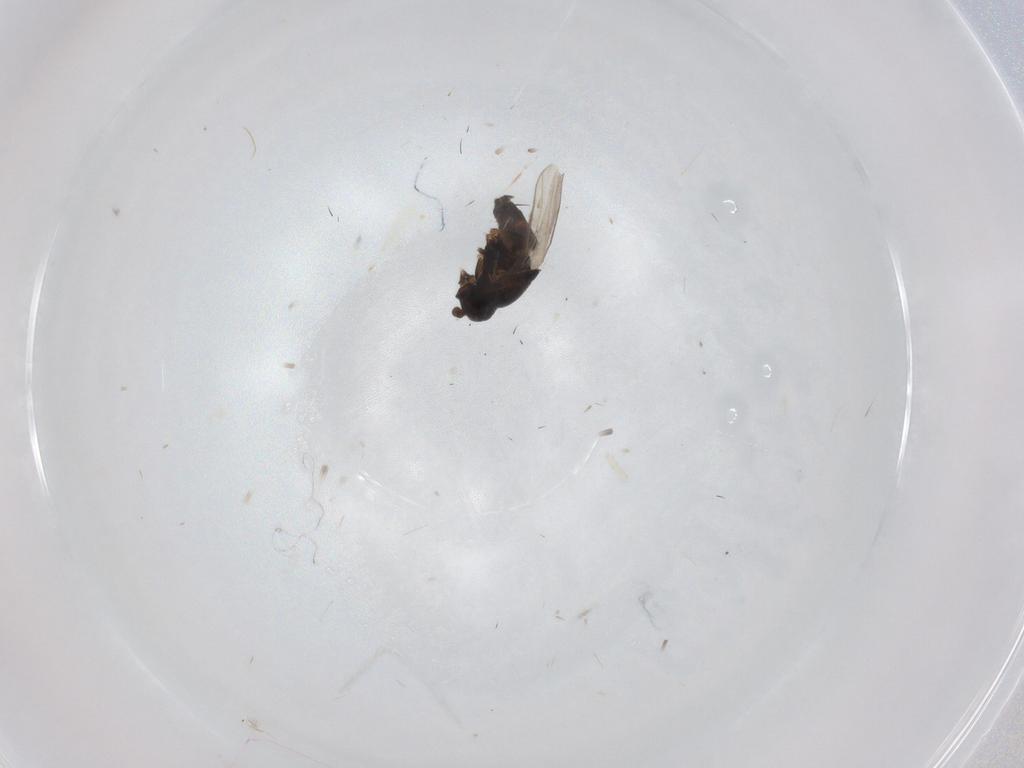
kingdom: Animalia
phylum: Arthropoda
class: Insecta
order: Diptera
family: Sphaeroceridae
